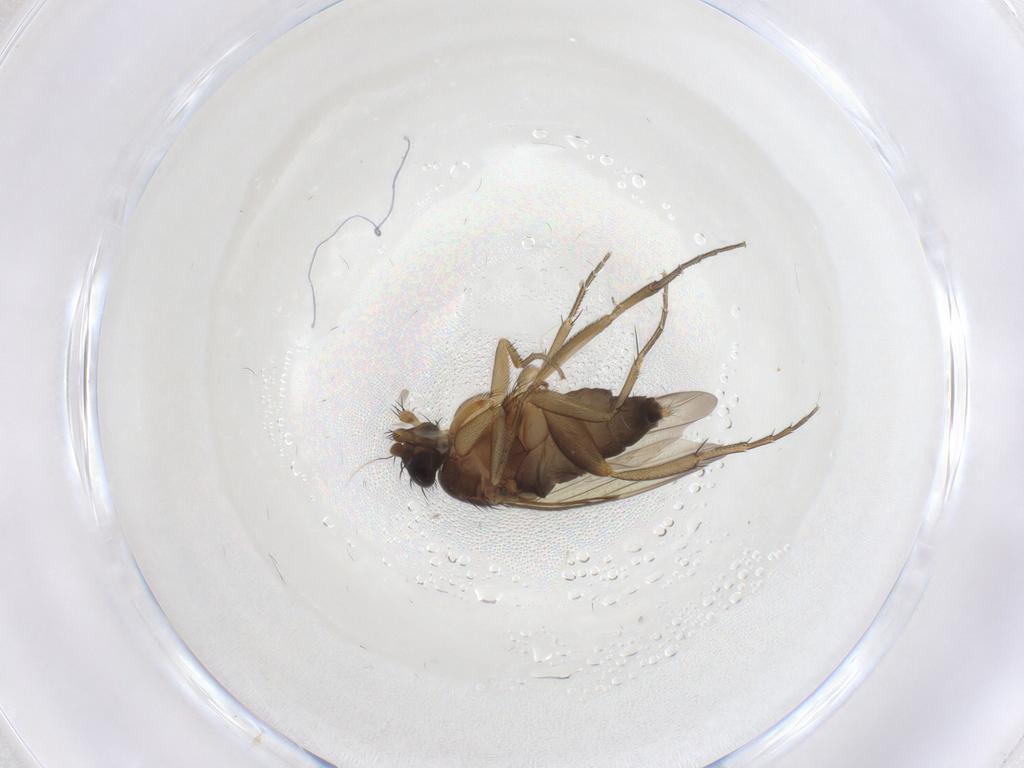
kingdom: Animalia
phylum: Arthropoda
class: Insecta
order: Diptera
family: Phoridae
